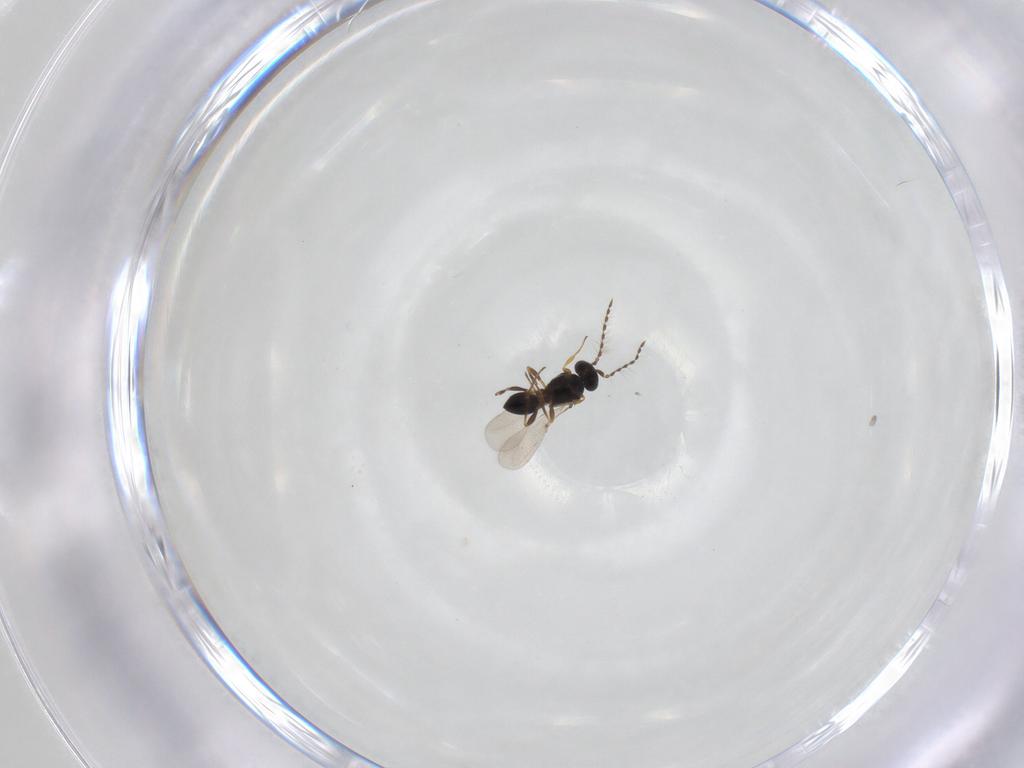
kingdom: Animalia
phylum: Arthropoda
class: Insecta
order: Hymenoptera
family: Platygastridae
